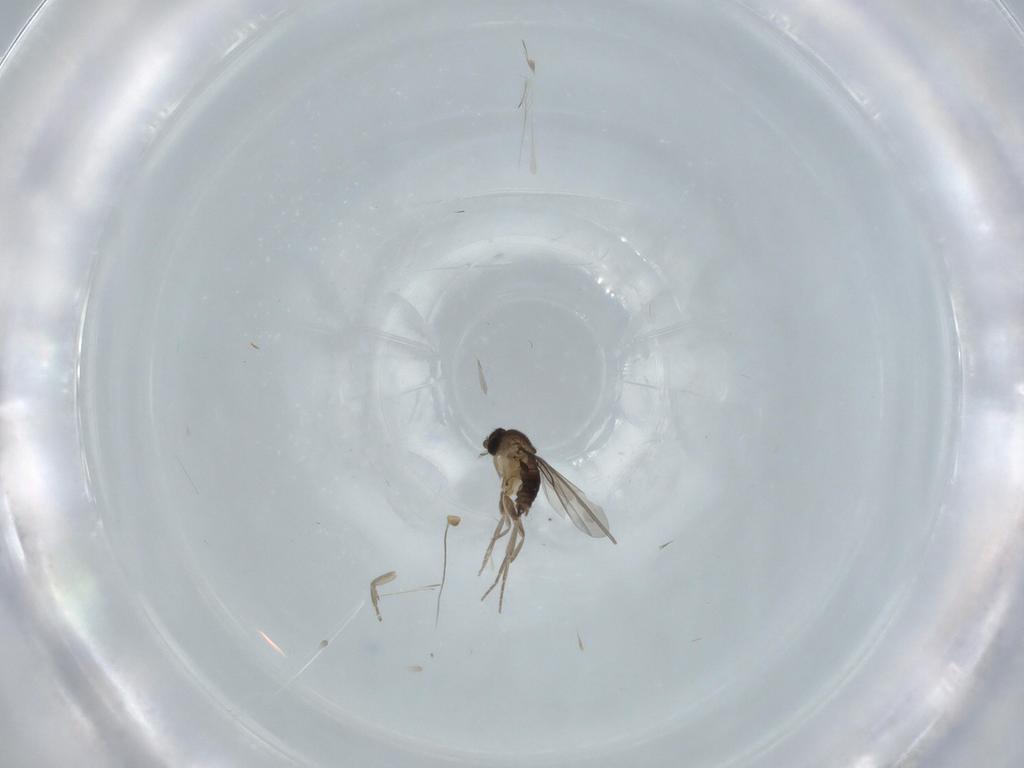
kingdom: Animalia
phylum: Arthropoda
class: Insecta
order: Diptera
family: Phoridae
